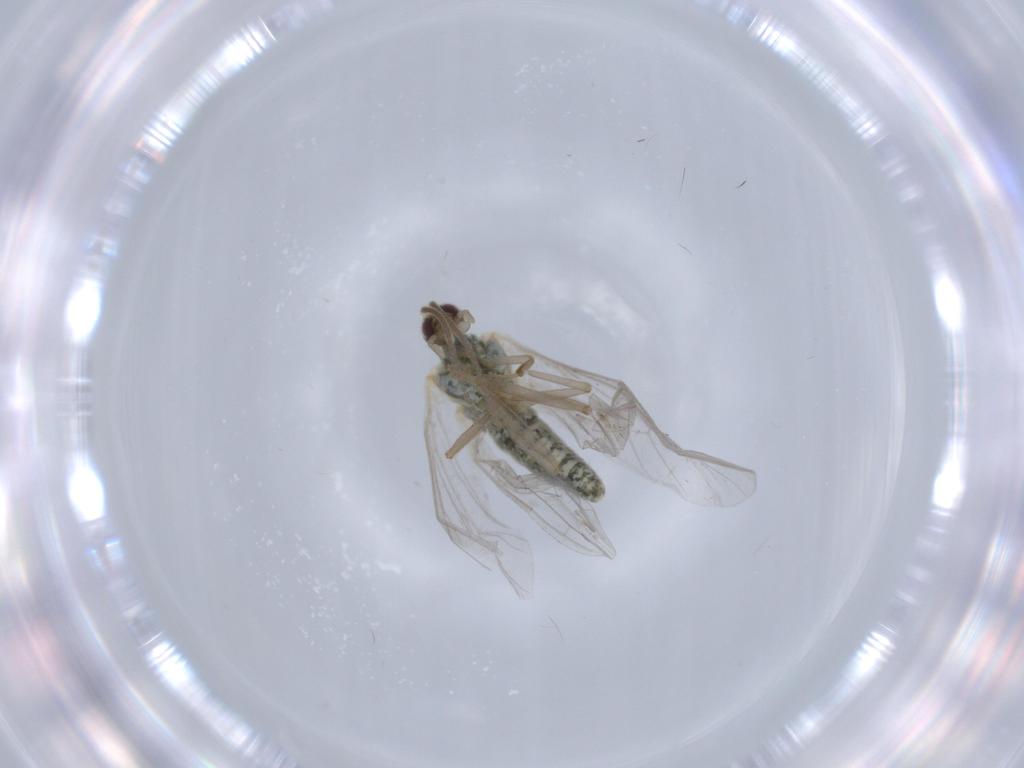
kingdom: Animalia
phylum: Arthropoda
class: Insecta
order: Neuroptera
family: Coniopterygidae
